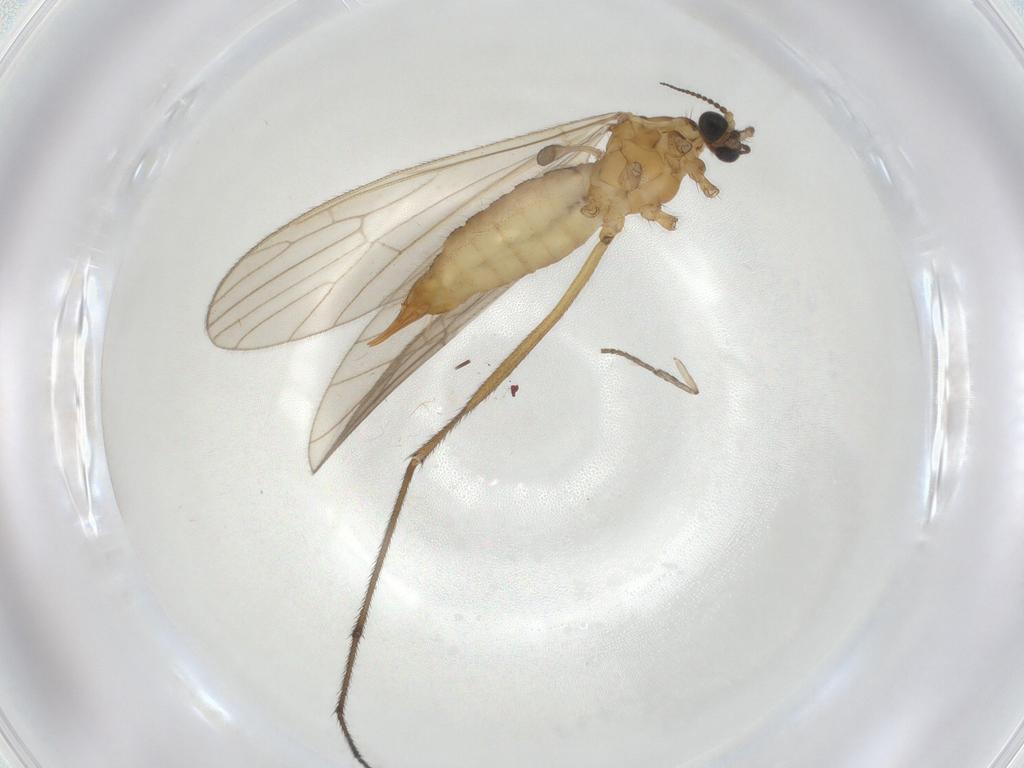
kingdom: Animalia
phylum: Arthropoda
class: Insecta
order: Diptera
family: Limoniidae
